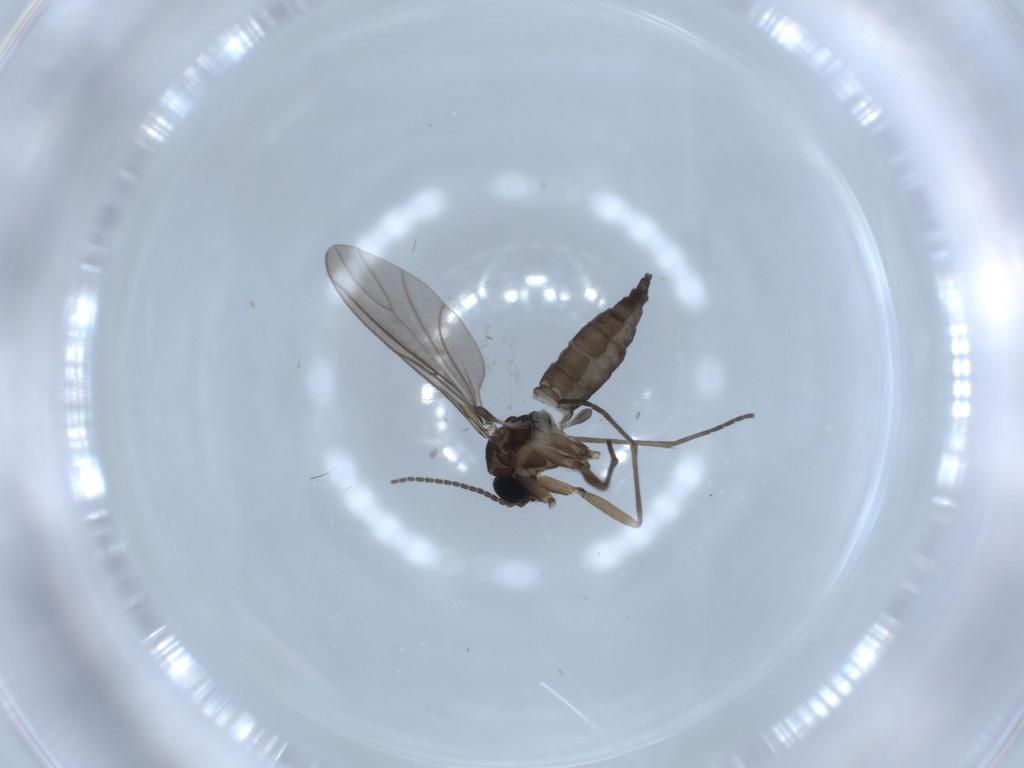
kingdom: Animalia
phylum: Arthropoda
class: Insecta
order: Diptera
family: Sciaridae
